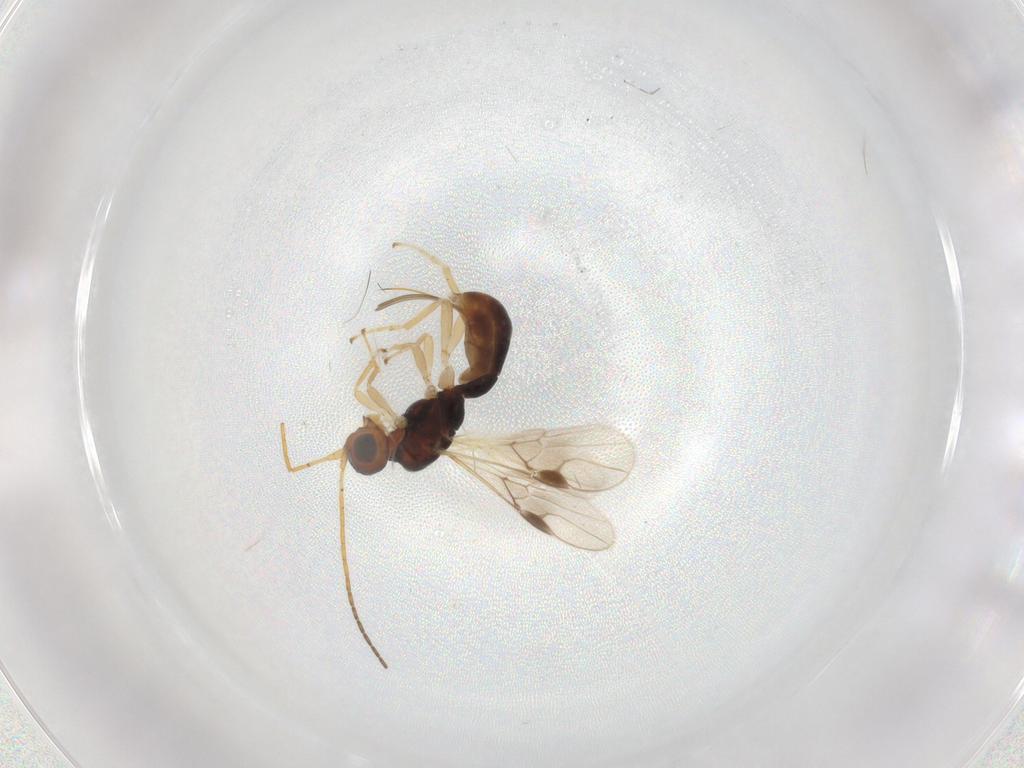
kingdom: Animalia
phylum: Arthropoda
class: Insecta
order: Hymenoptera
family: Braconidae
